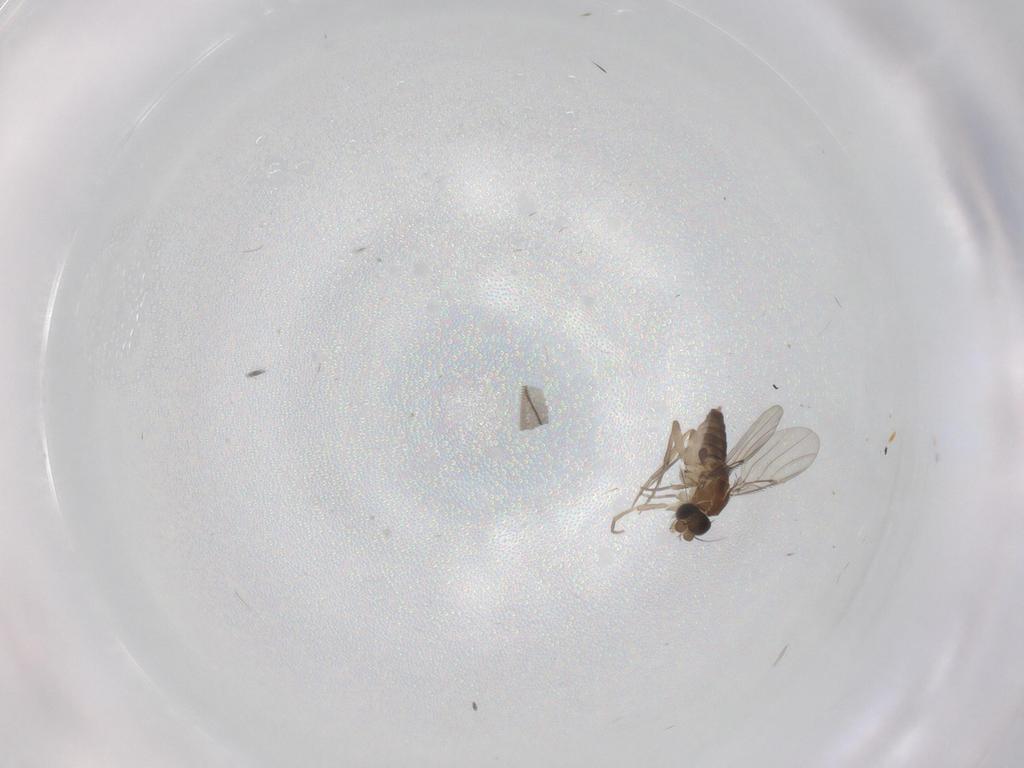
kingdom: Animalia
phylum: Arthropoda
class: Insecta
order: Diptera
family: Phoridae
